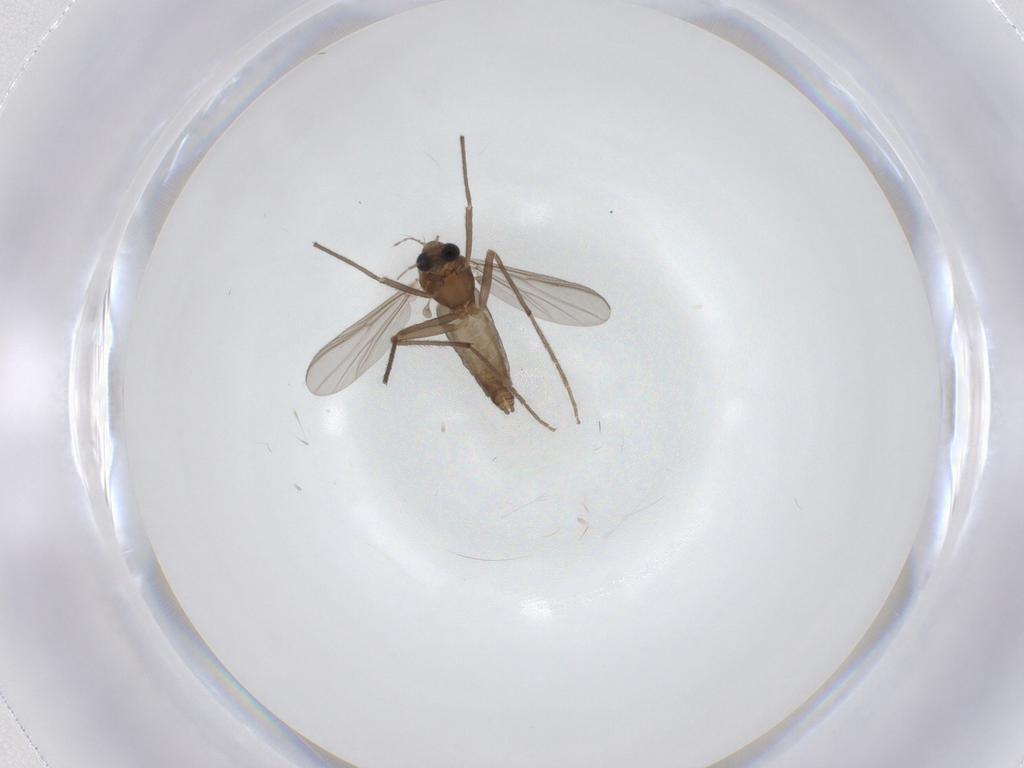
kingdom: Animalia
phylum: Arthropoda
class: Insecta
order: Diptera
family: Chironomidae
